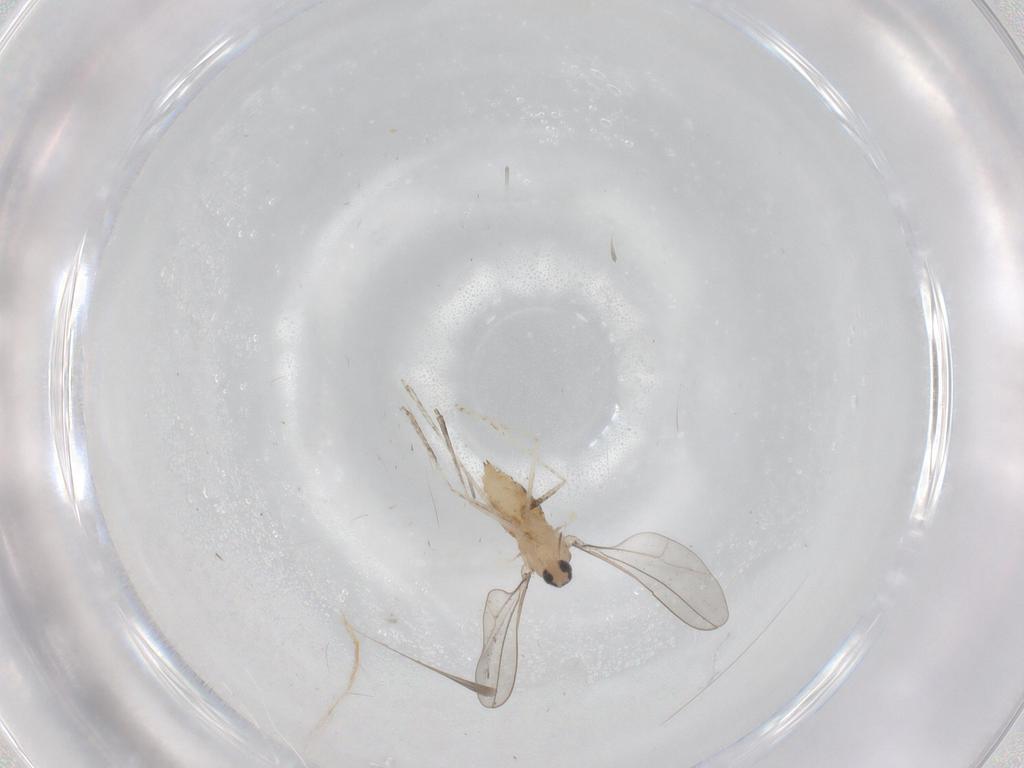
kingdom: Animalia
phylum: Arthropoda
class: Insecta
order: Diptera
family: Cecidomyiidae
